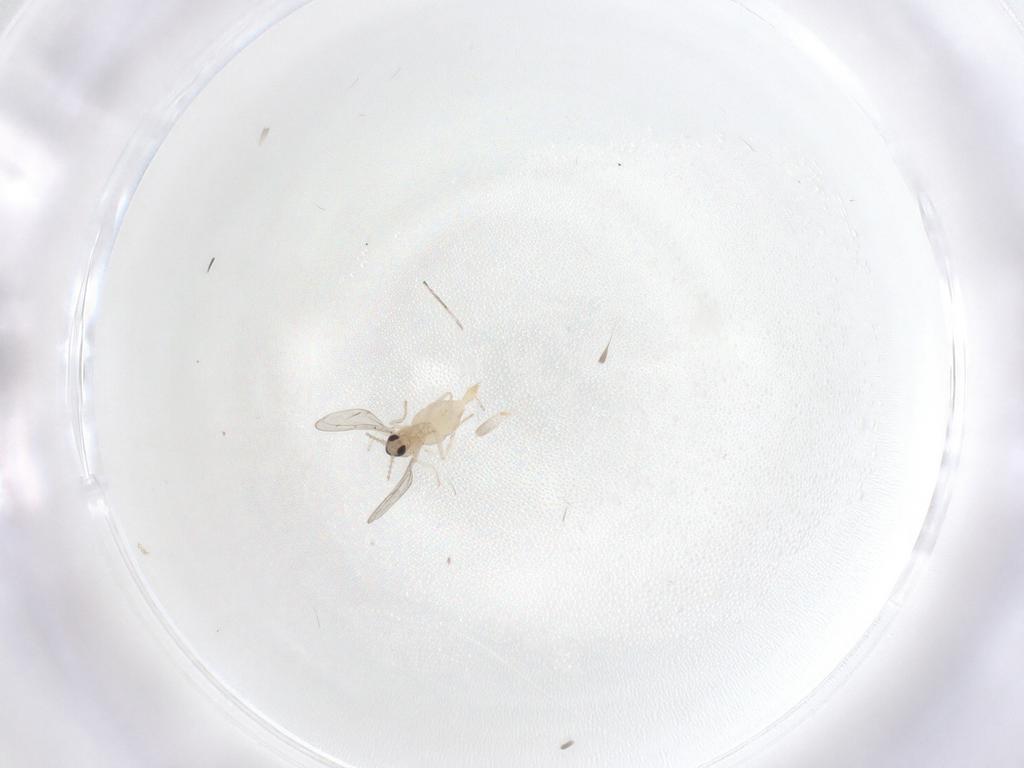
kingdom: Animalia
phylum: Arthropoda
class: Insecta
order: Diptera
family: Cecidomyiidae
